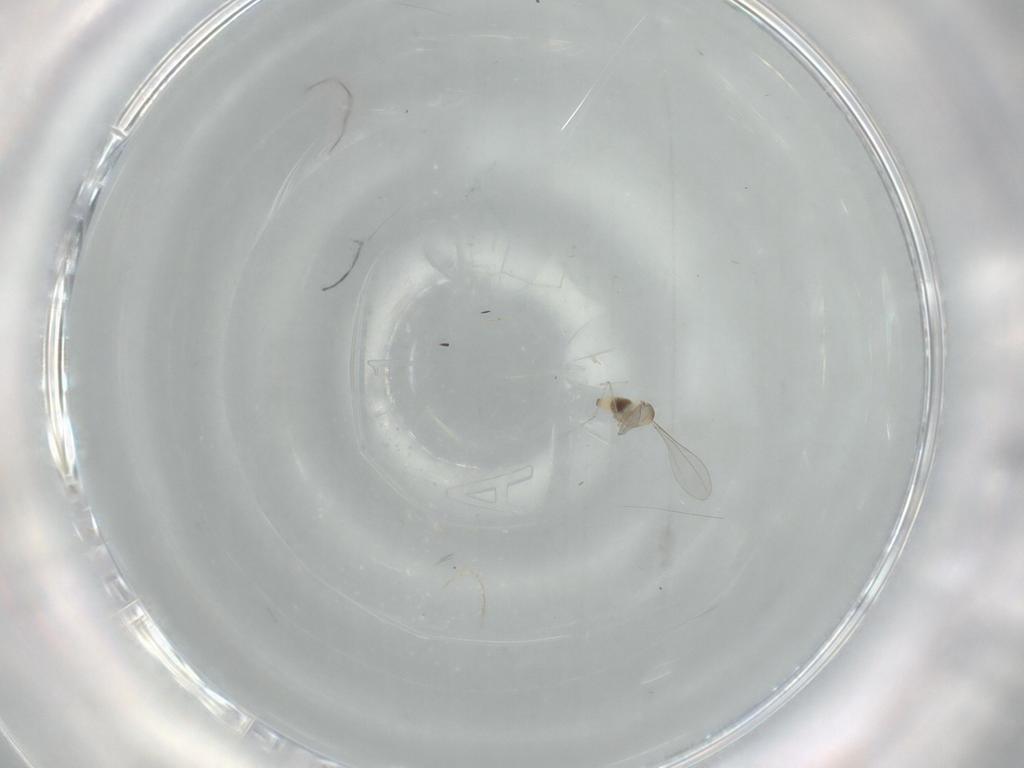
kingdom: Animalia
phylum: Arthropoda
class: Insecta
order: Diptera
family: Cecidomyiidae
